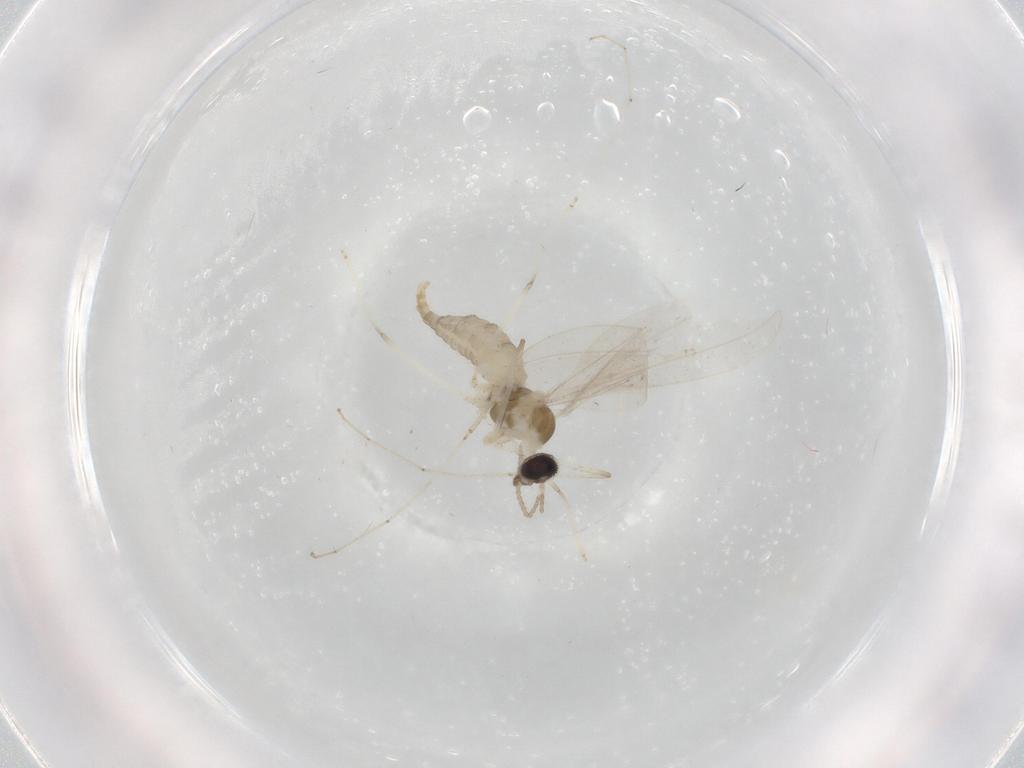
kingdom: Animalia
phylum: Arthropoda
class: Insecta
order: Diptera
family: Cecidomyiidae
